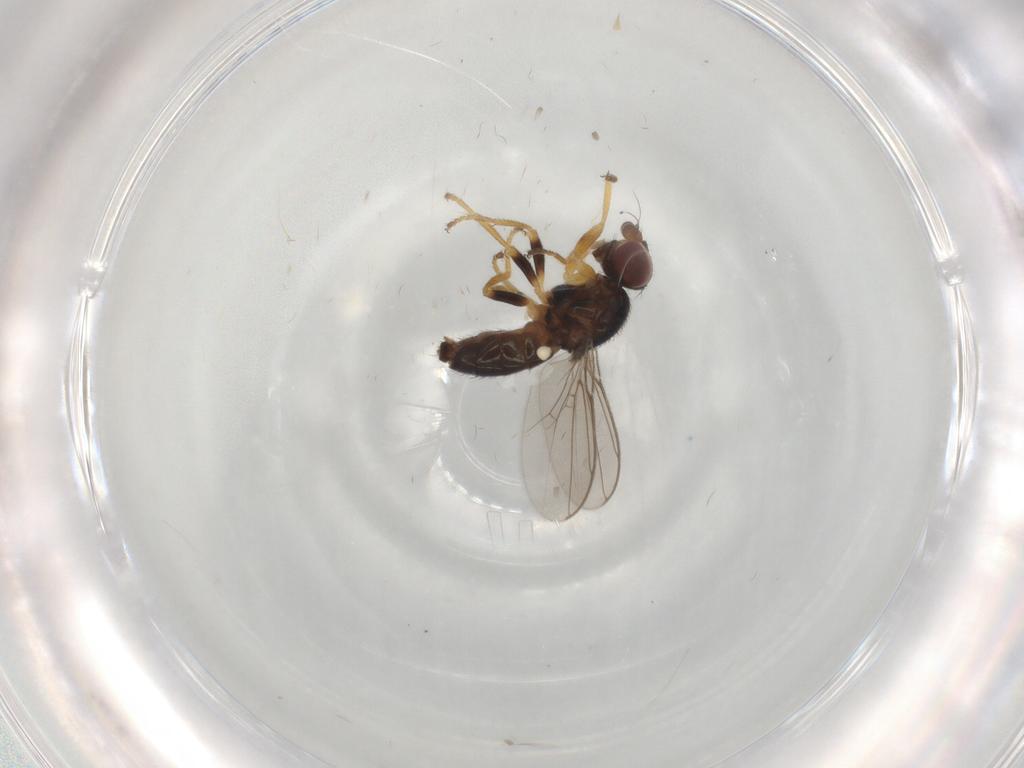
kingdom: Animalia
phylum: Arthropoda
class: Insecta
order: Diptera
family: Chloropidae
